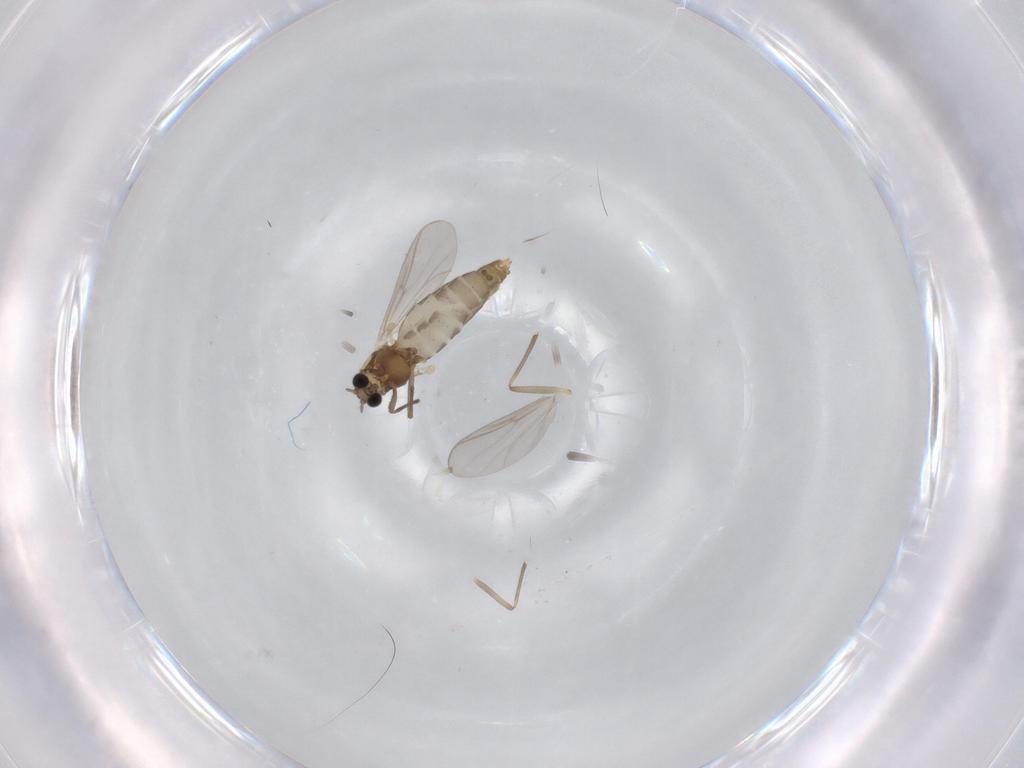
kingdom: Animalia
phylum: Arthropoda
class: Insecta
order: Diptera
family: Chironomidae
